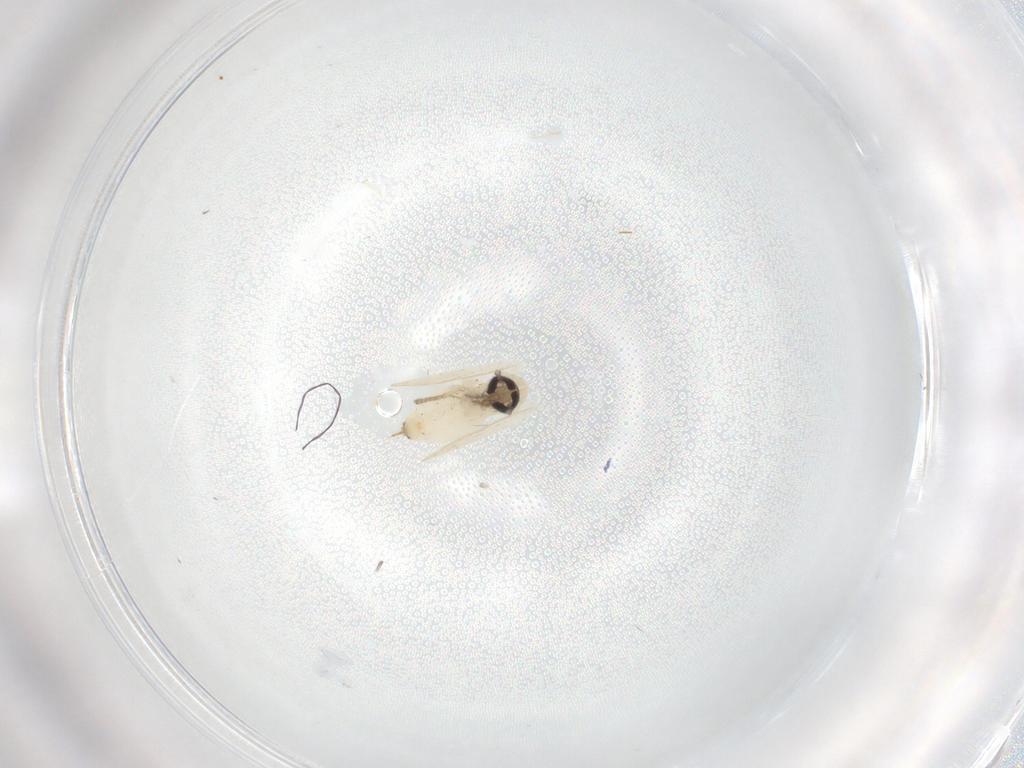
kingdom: Animalia
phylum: Arthropoda
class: Insecta
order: Diptera
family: Psychodidae
